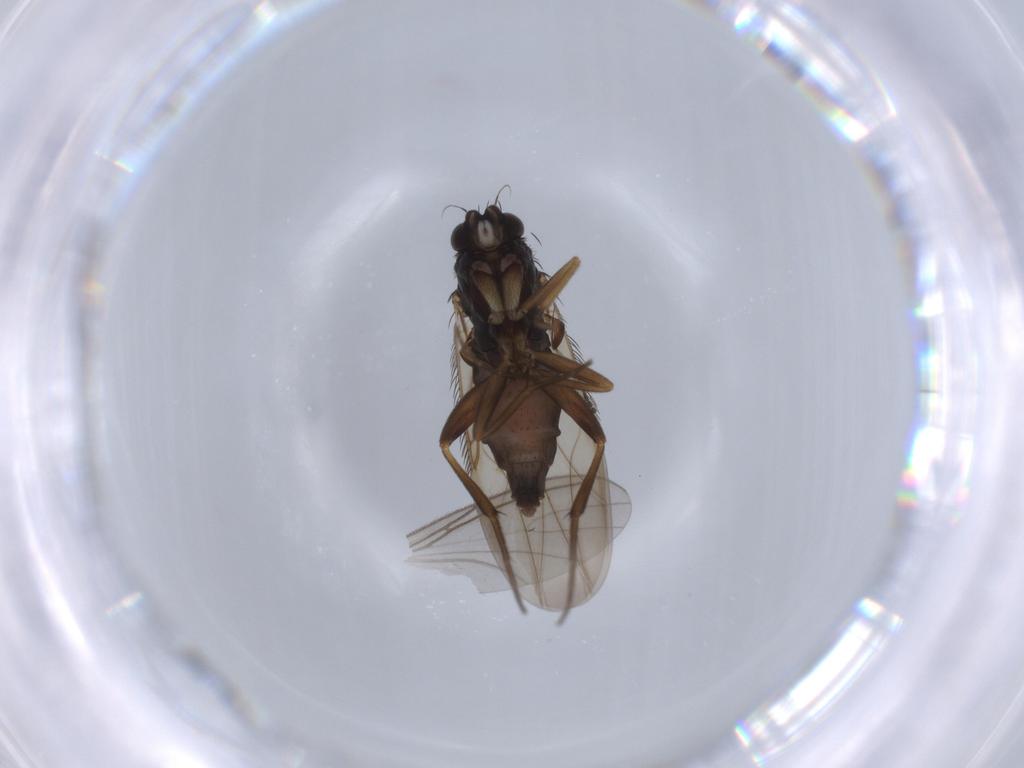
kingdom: Animalia
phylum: Arthropoda
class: Insecta
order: Diptera
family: Phoridae
